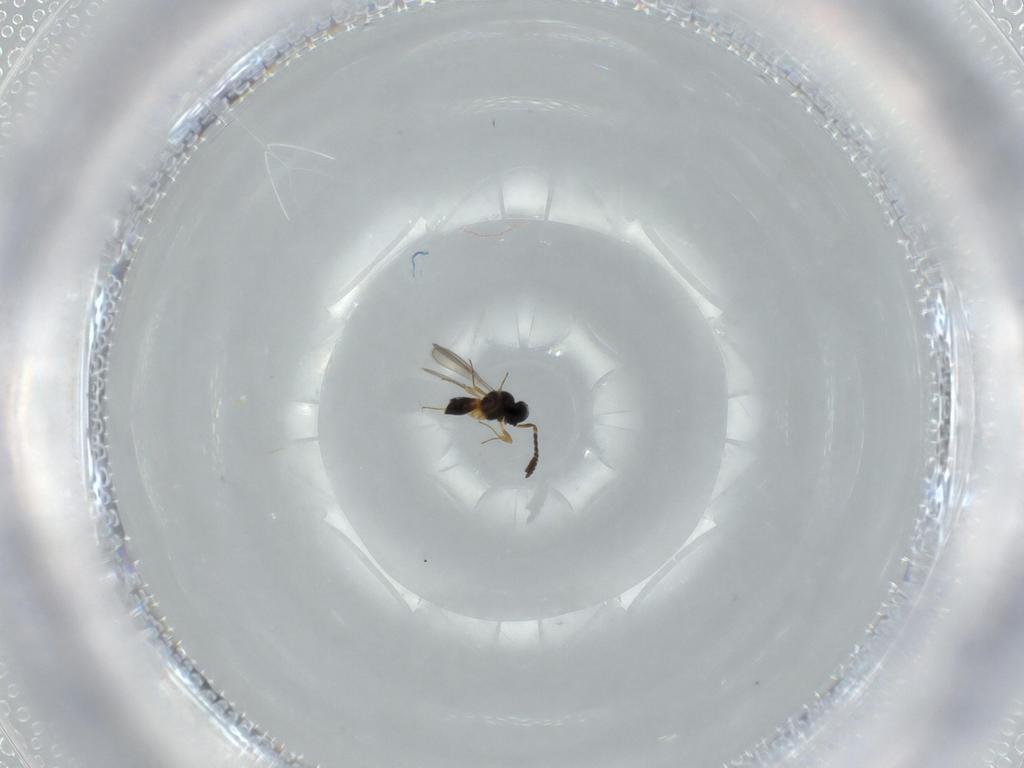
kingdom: Animalia
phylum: Arthropoda
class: Insecta
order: Hymenoptera
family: Scelionidae
